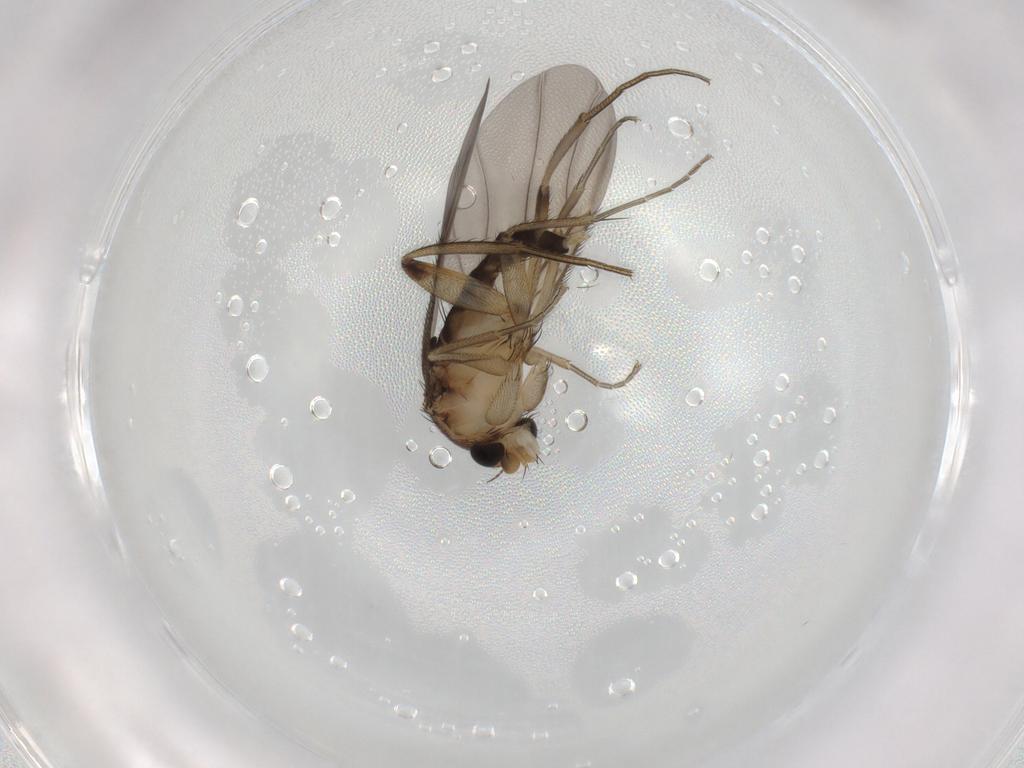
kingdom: Animalia
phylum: Arthropoda
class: Insecta
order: Diptera
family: Phoridae
